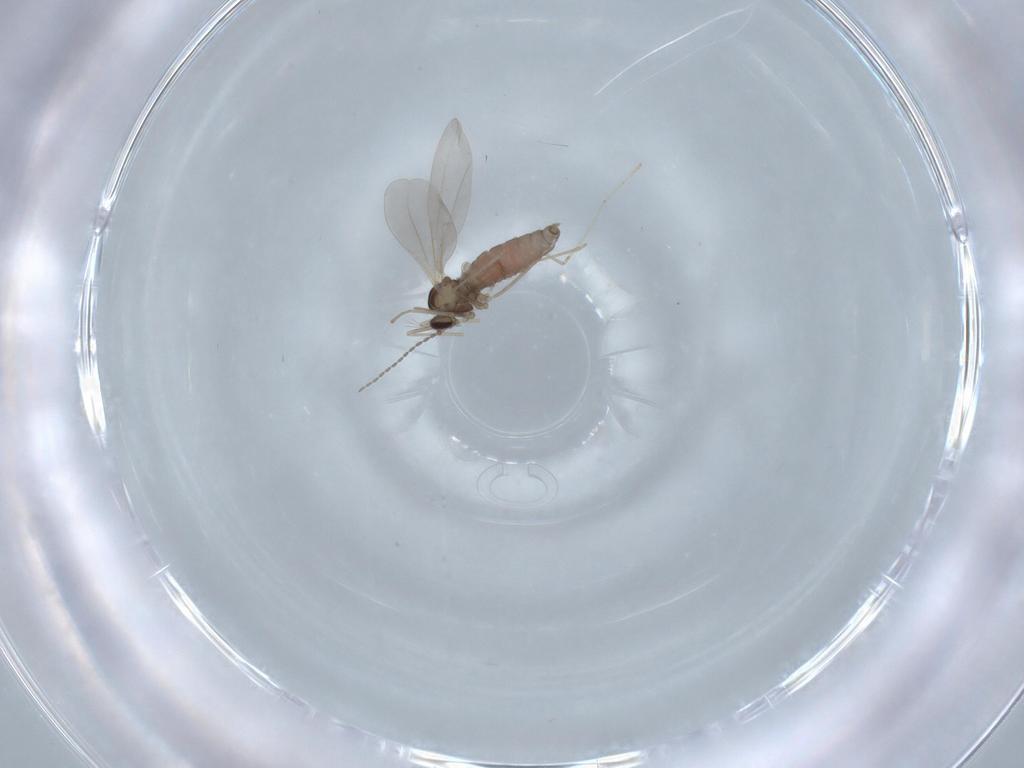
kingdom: Animalia
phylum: Arthropoda
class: Insecta
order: Diptera
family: Cecidomyiidae
